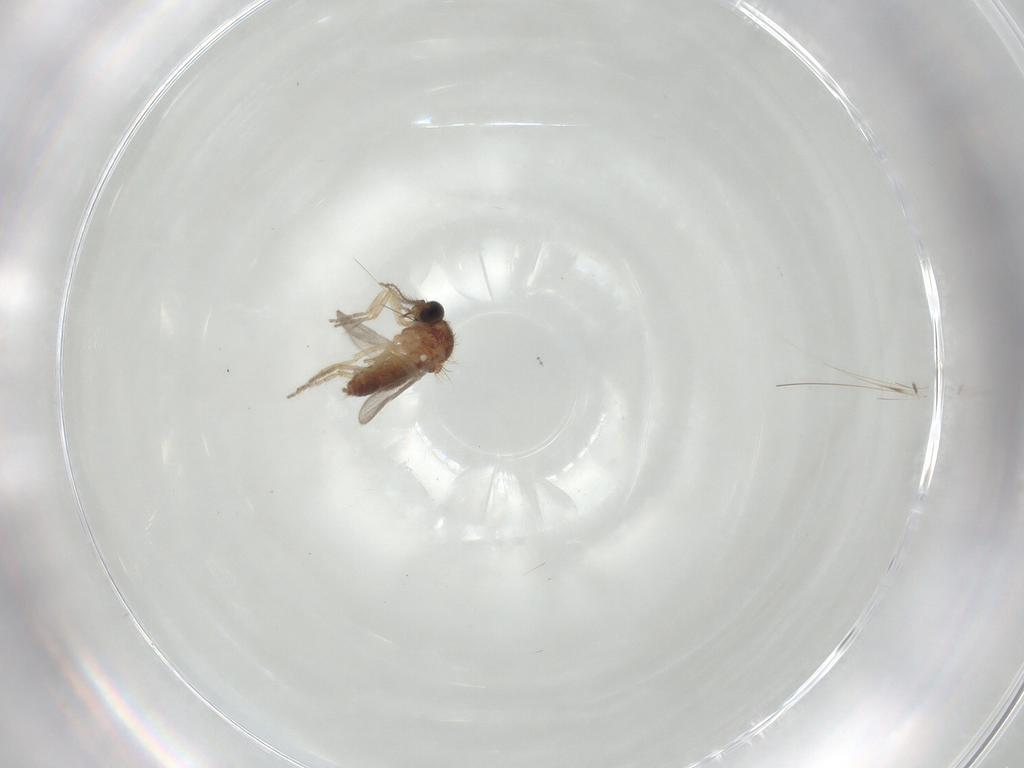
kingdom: Animalia
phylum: Arthropoda
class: Insecta
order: Diptera
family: Ceratopogonidae
